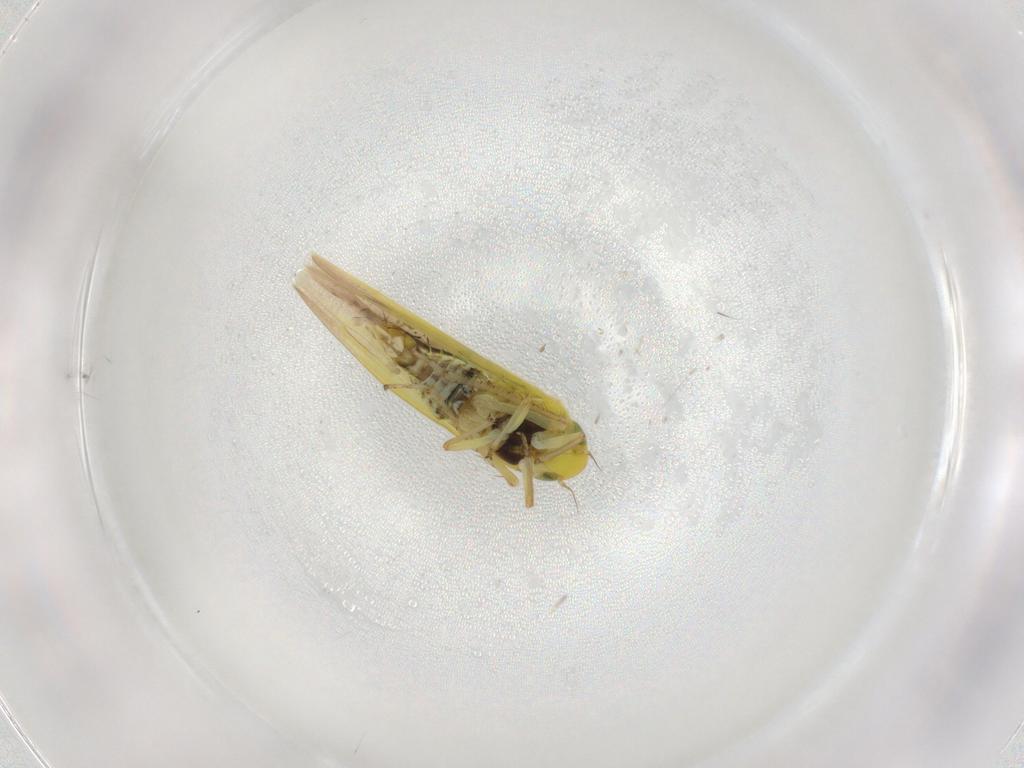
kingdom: Animalia
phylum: Arthropoda
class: Insecta
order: Hemiptera
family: Cicadellidae
